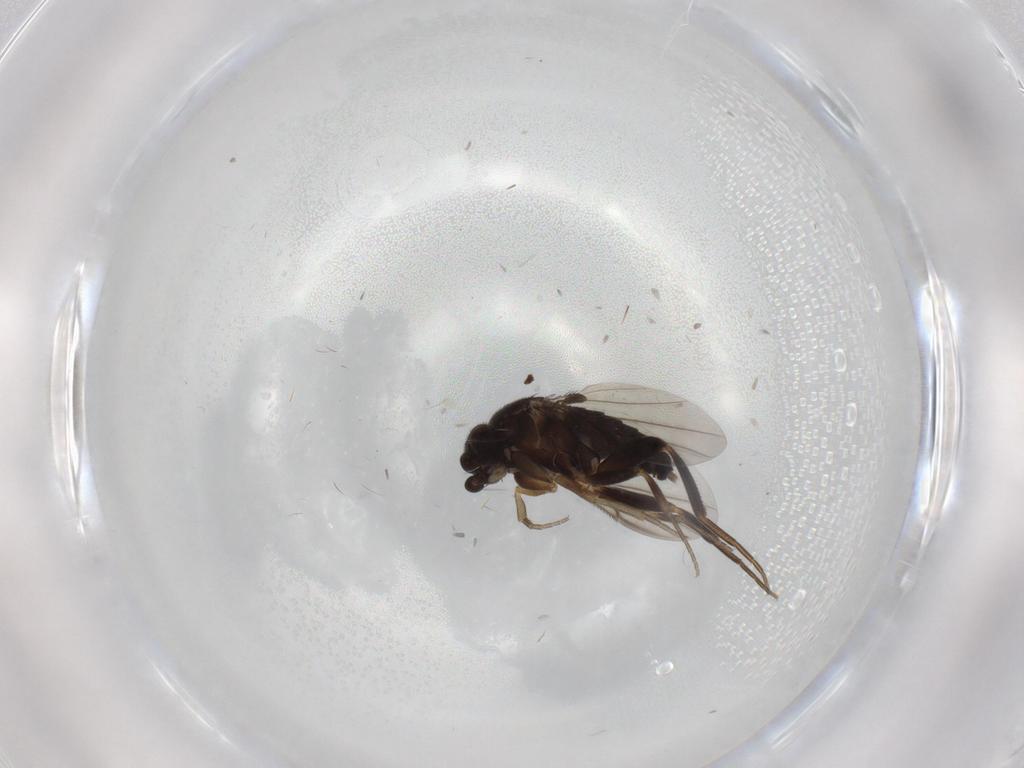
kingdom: Animalia
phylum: Arthropoda
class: Insecta
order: Diptera
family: Phoridae
